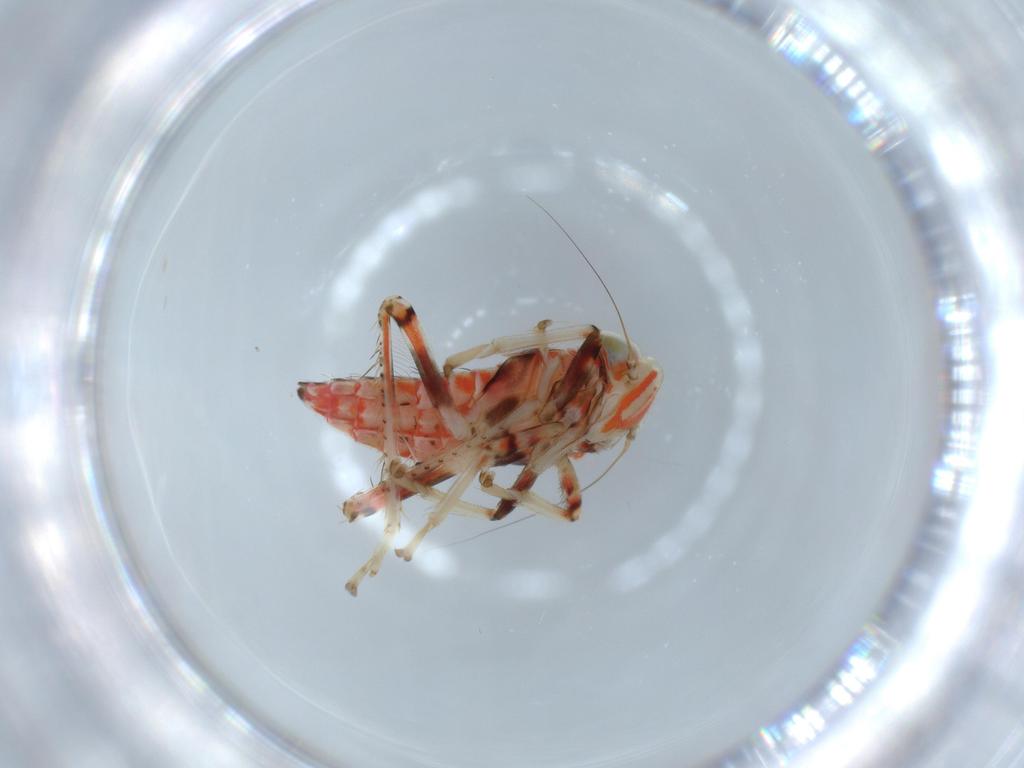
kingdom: Animalia
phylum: Arthropoda
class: Insecta
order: Hemiptera
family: Cicadellidae
